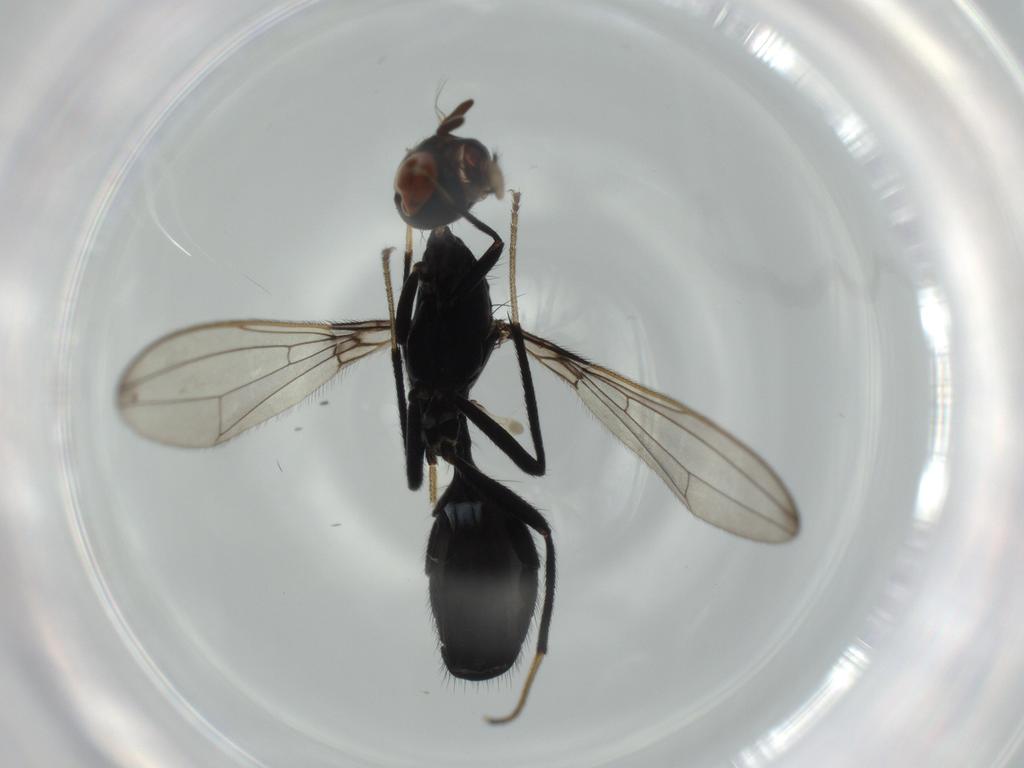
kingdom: Animalia
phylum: Arthropoda
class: Insecta
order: Diptera
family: Richardiidae
